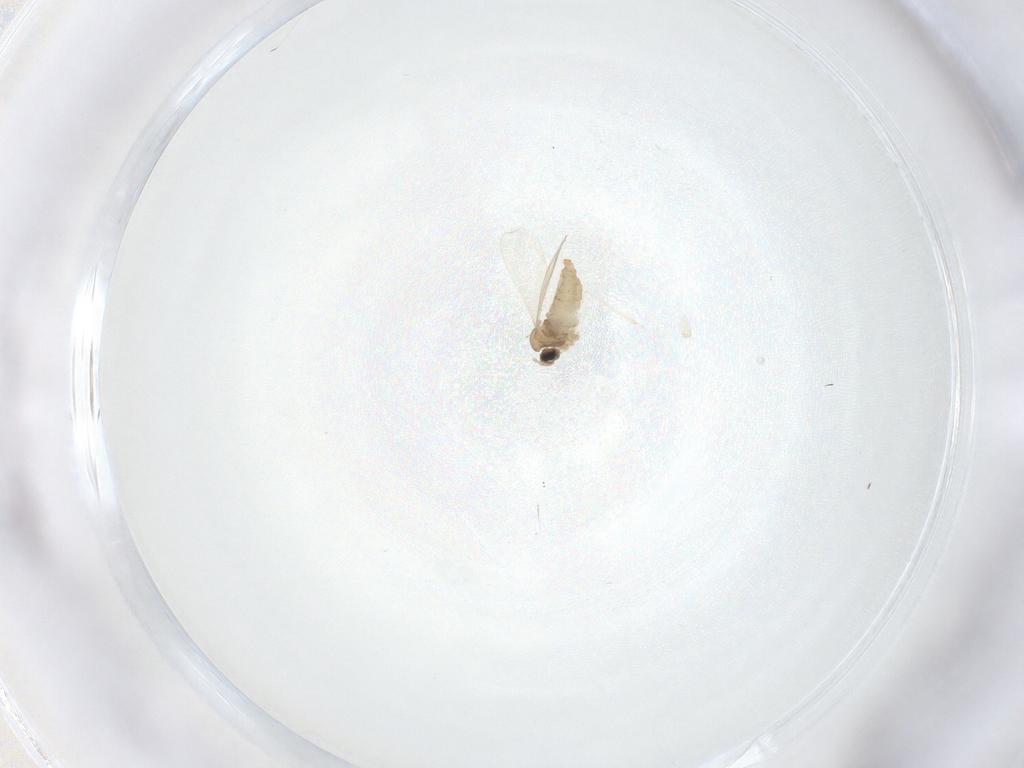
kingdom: Animalia
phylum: Arthropoda
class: Insecta
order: Diptera
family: Cecidomyiidae
